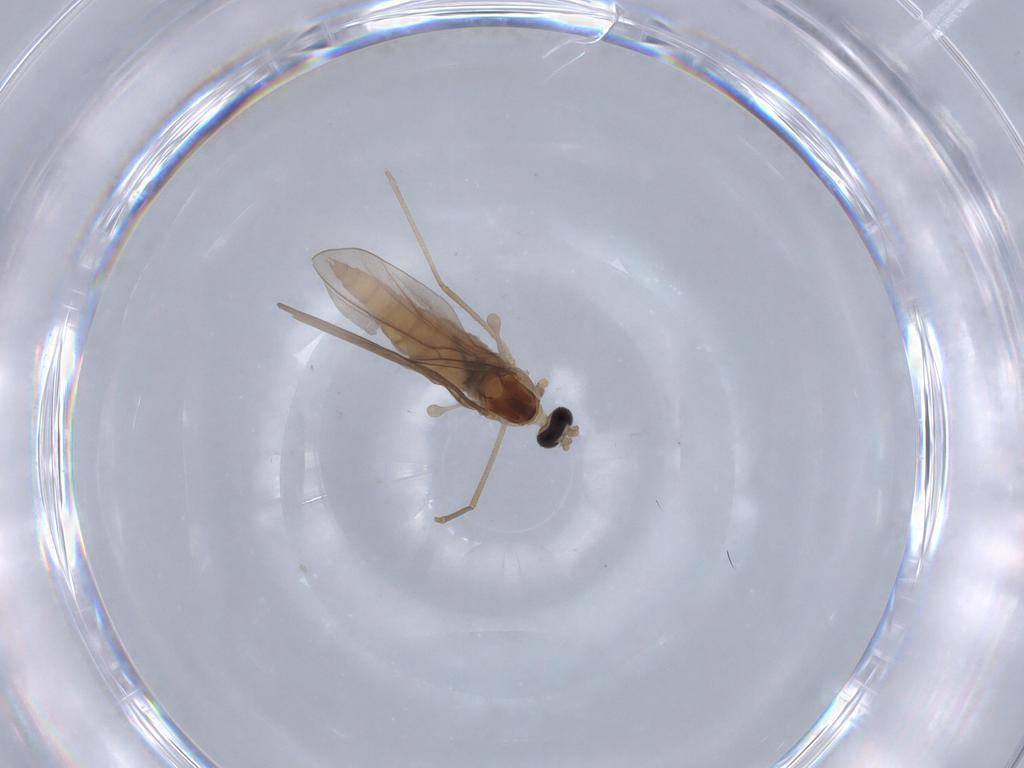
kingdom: Animalia
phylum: Arthropoda
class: Insecta
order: Diptera
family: Cecidomyiidae
